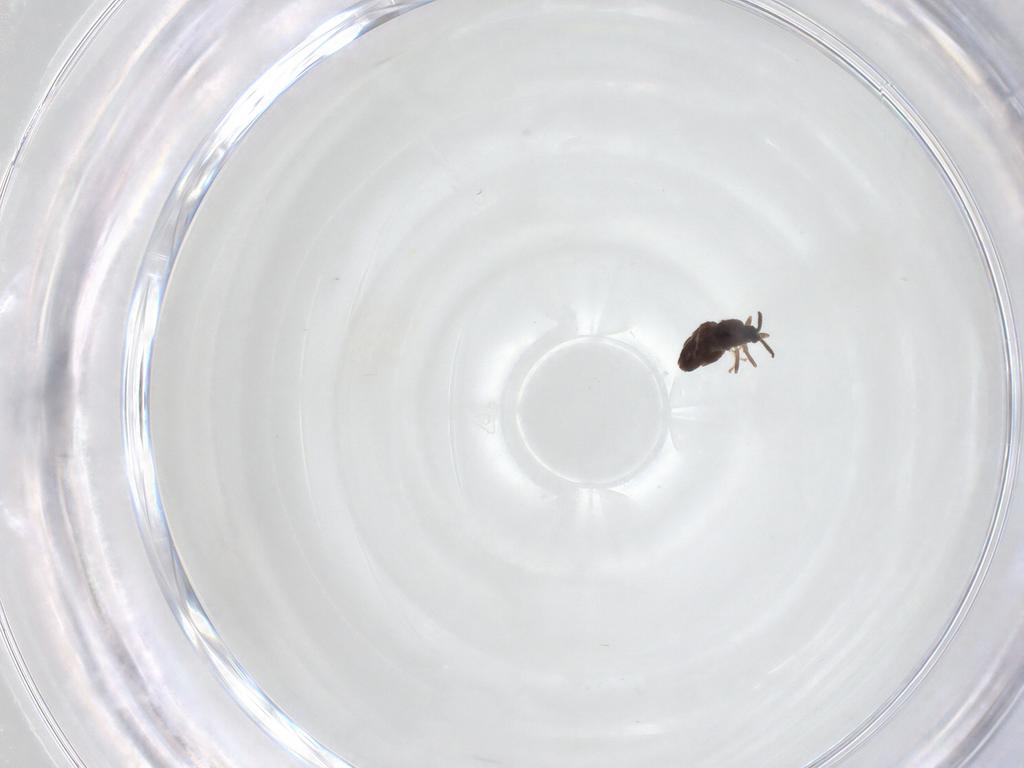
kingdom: Animalia
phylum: Arthropoda
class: Insecta
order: Diptera
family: Scatopsidae
